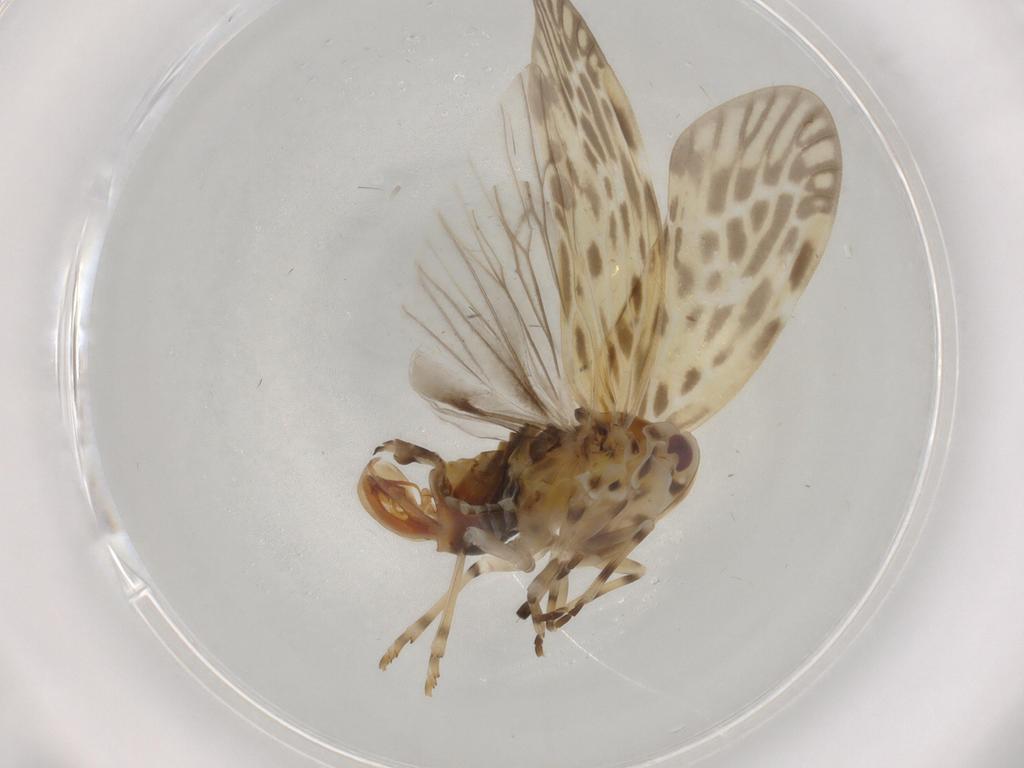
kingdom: Animalia
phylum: Arthropoda
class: Insecta
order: Hemiptera
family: Derbidae
